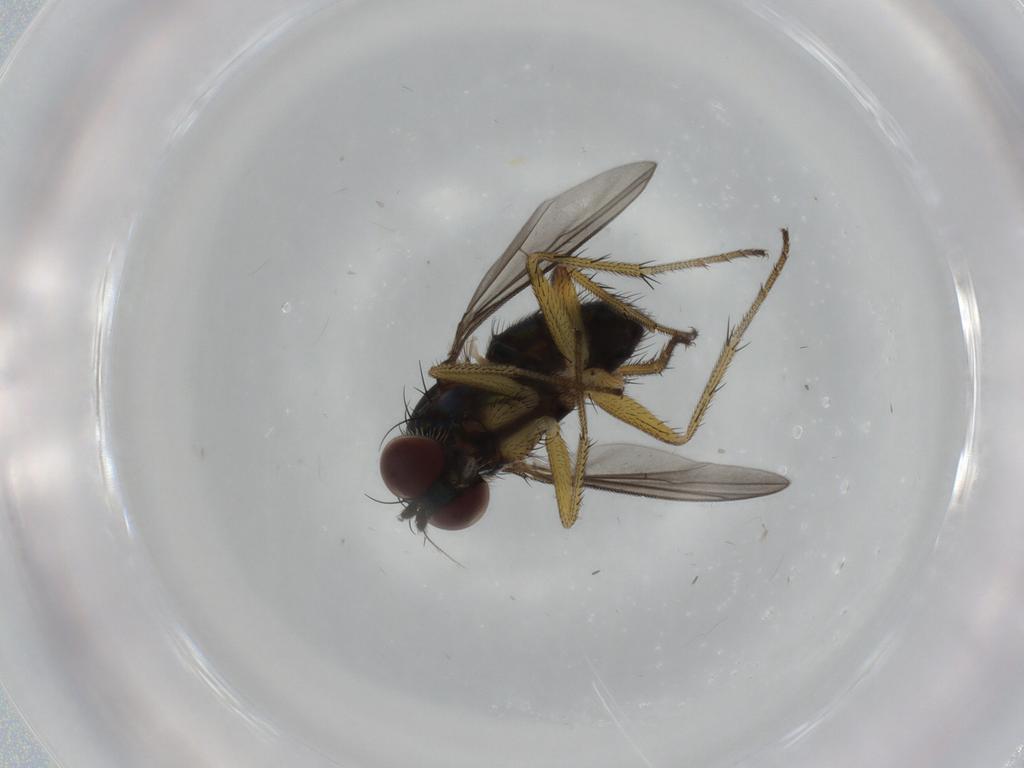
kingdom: Animalia
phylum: Arthropoda
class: Insecta
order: Diptera
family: Dolichopodidae
